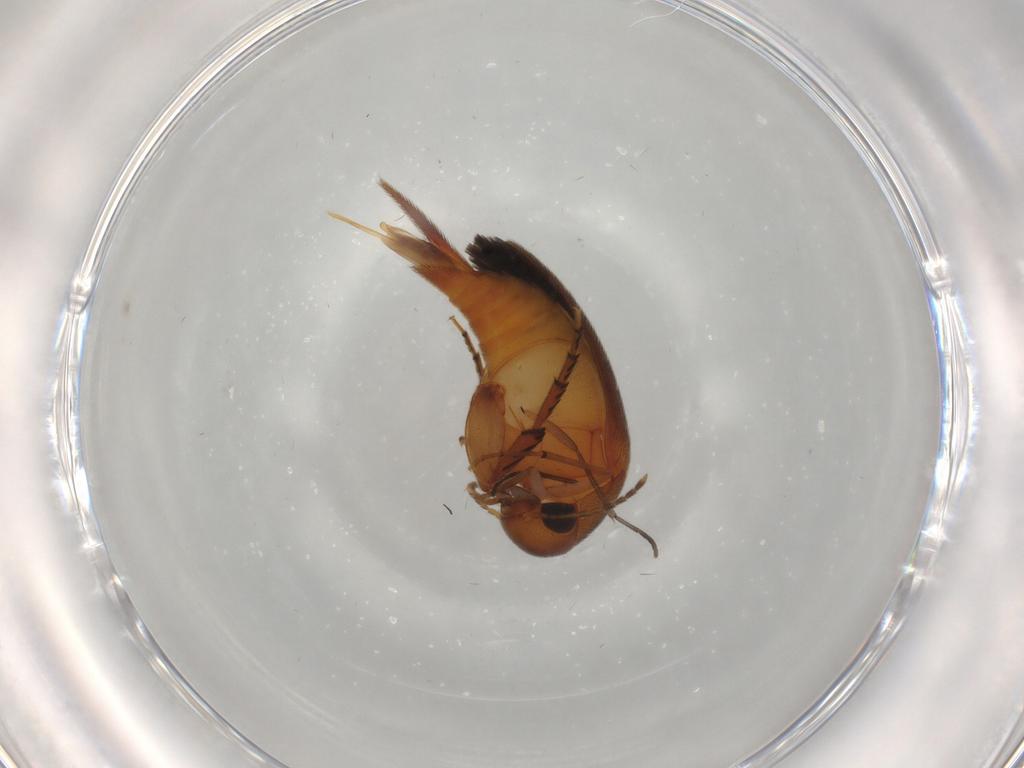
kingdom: Animalia
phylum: Arthropoda
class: Insecta
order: Coleoptera
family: Mordellidae
